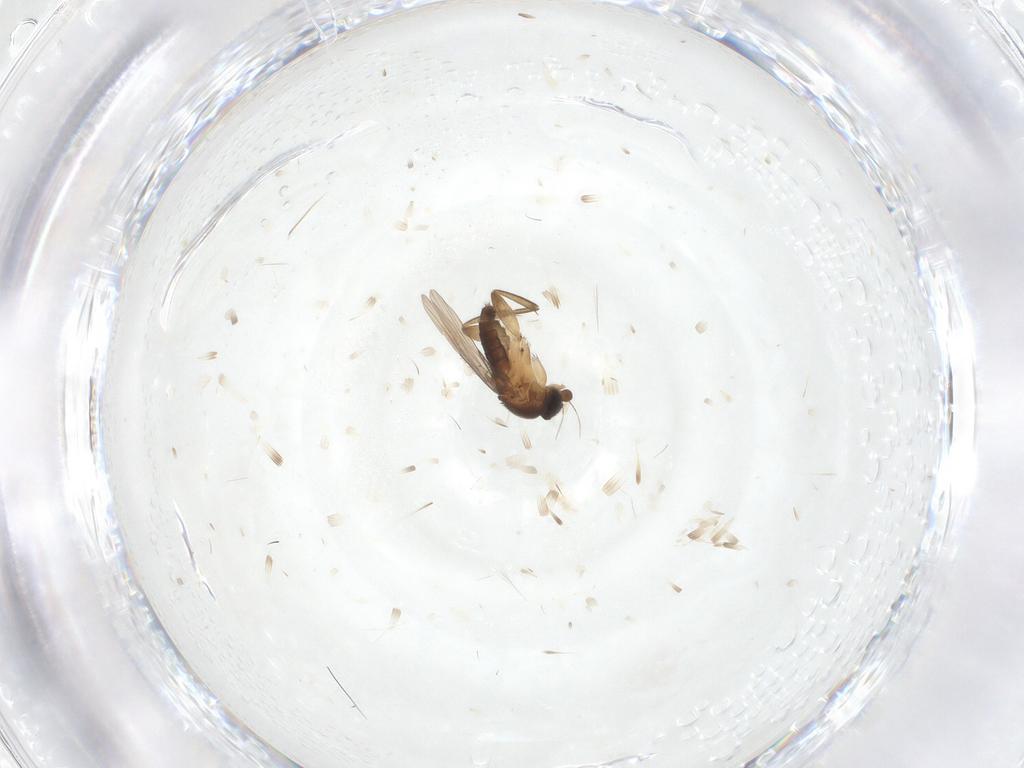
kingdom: Animalia
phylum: Arthropoda
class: Insecta
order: Diptera
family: Phoridae
